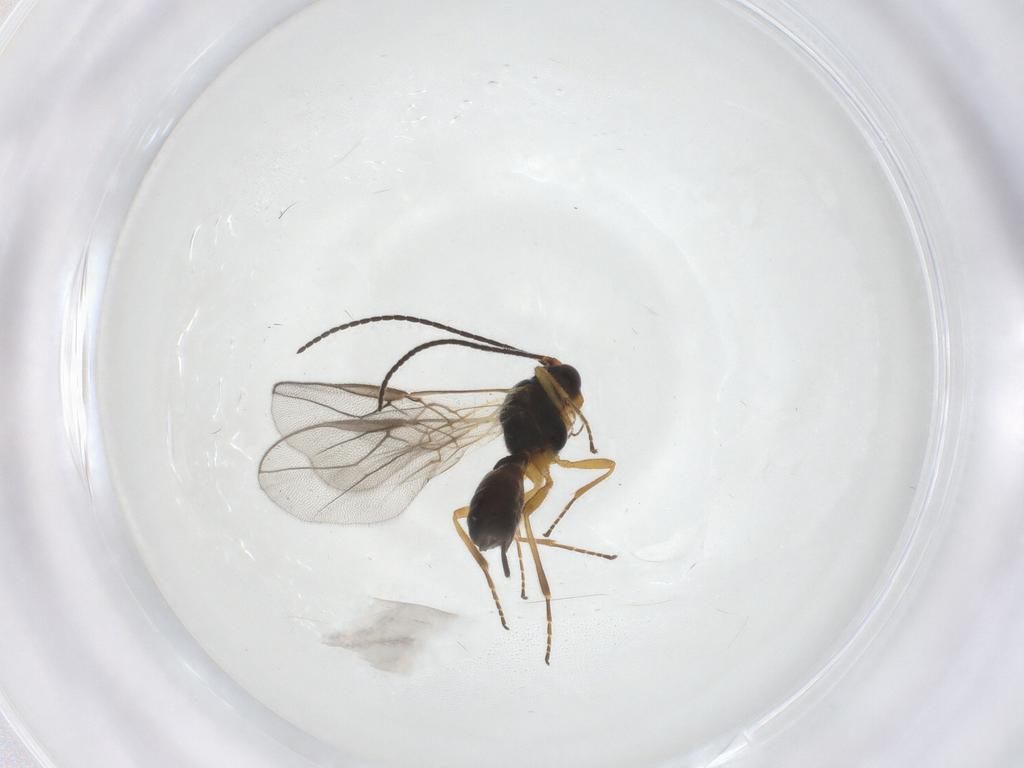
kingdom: Animalia
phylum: Arthropoda
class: Insecta
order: Hymenoptera
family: Braconidae
